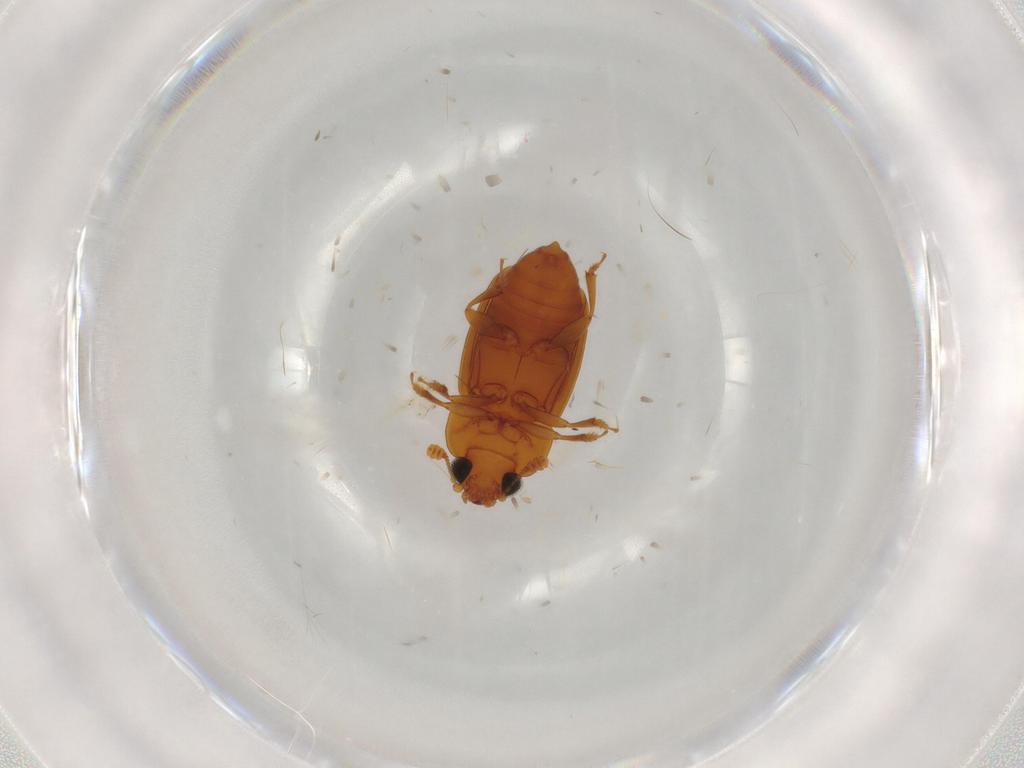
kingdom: Animalia
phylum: Arthropoda
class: Insecta
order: Coleoptera
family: Nitidulidae
